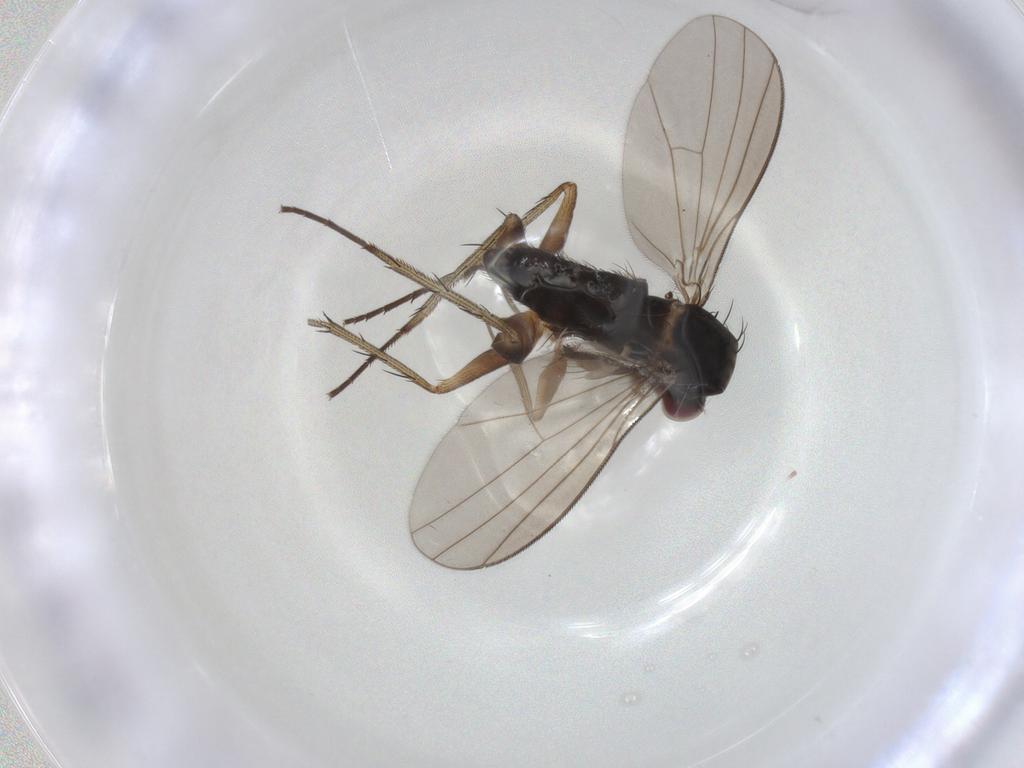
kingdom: Animalia
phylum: Arthropoda
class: Insecta
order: Diptera
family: Dolichopodidae
